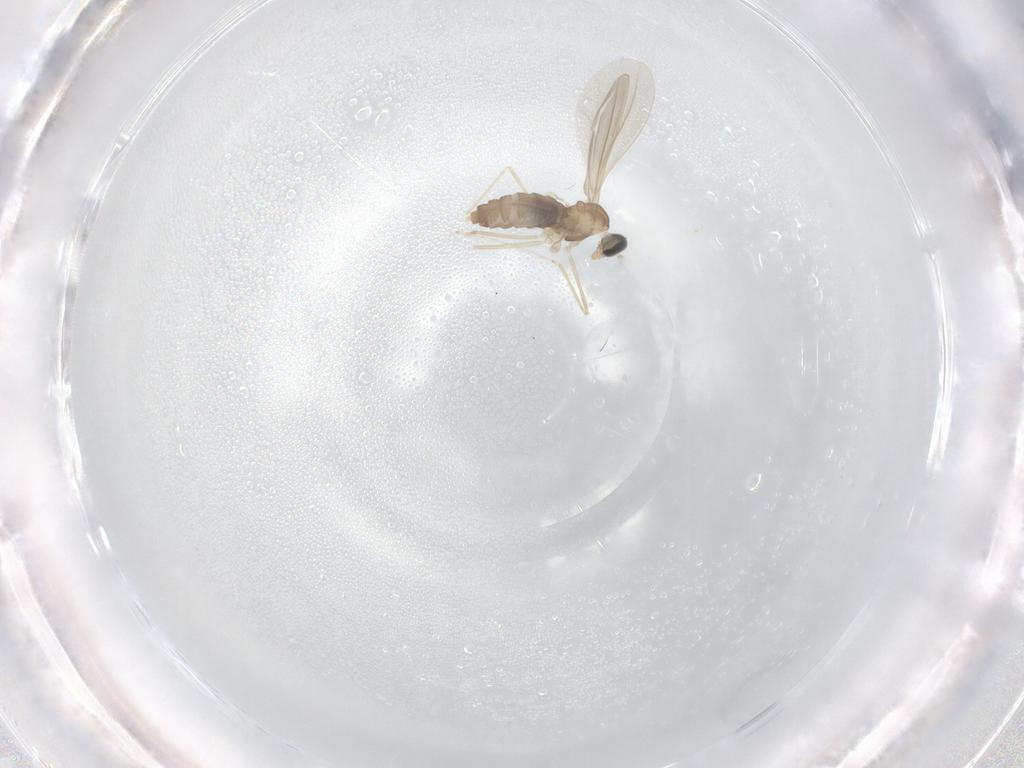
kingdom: Animalia
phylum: Arthropoda
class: Insecta
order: Diptera
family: Cecidomyiidae
